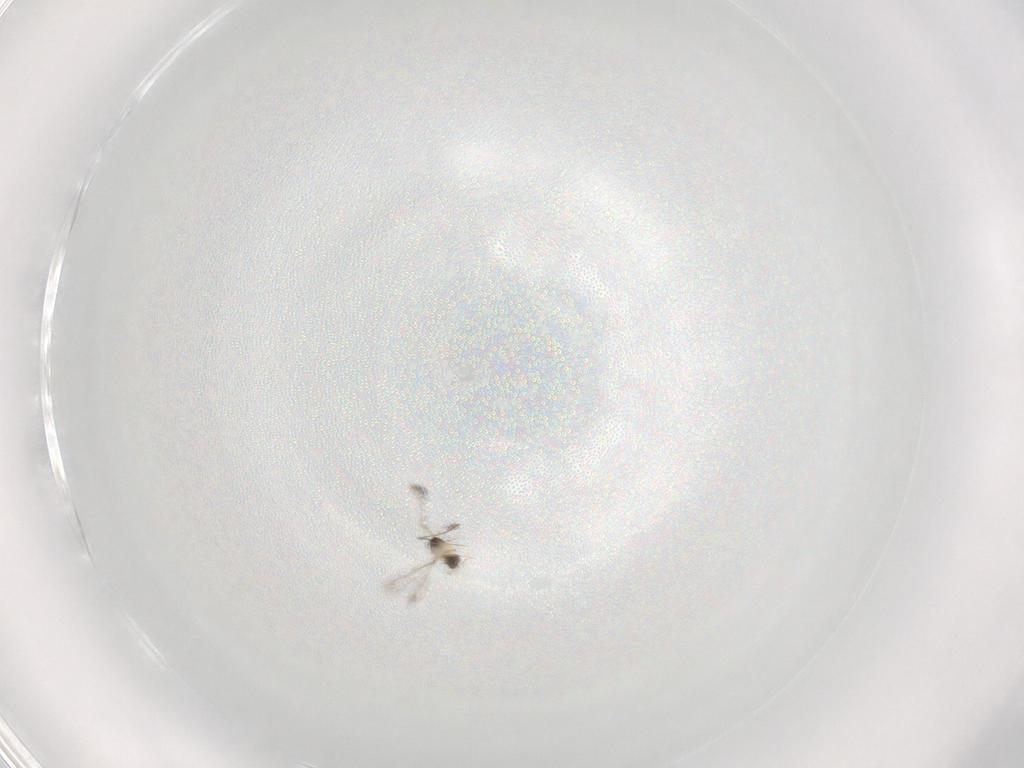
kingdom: Animalia
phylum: Arthropoda
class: Insecta
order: Hymenoptera
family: Mymaridae
